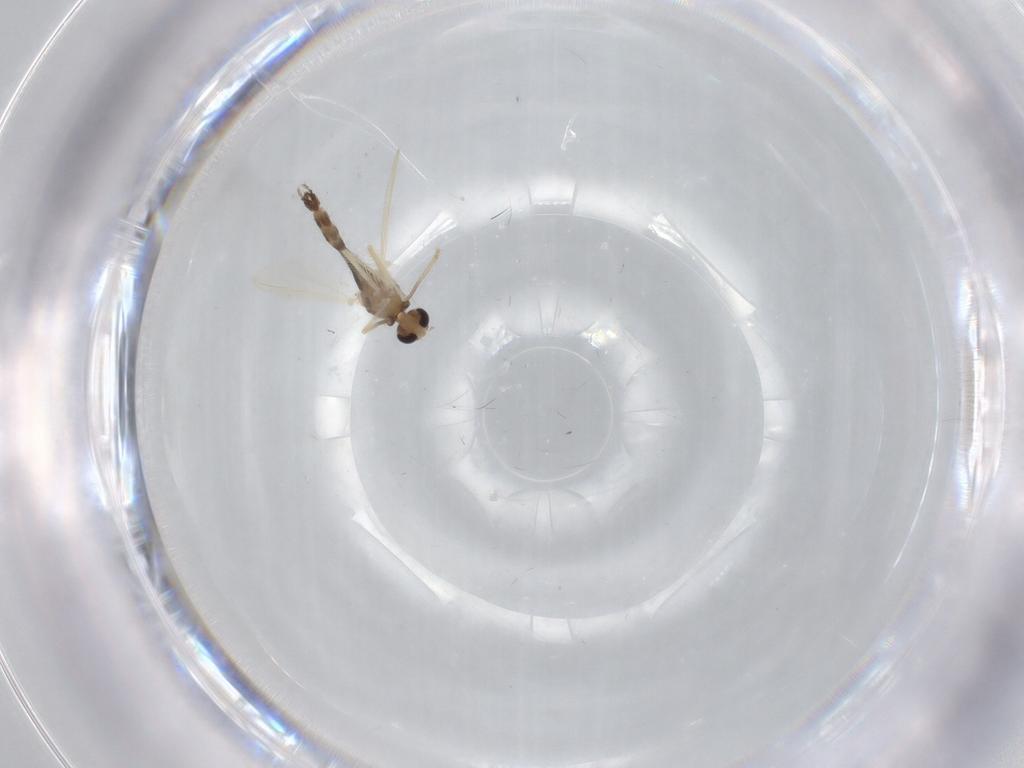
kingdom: Animalia
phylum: Arthropoda
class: Insecta
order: Diptera
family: Chironomidae
